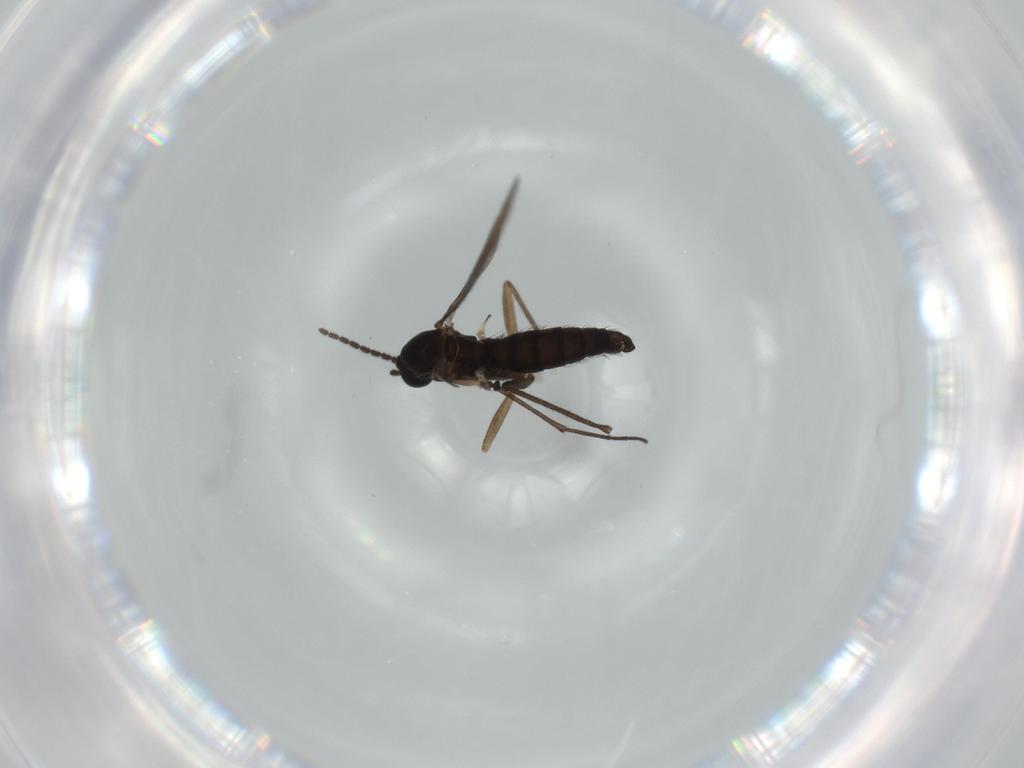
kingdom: Animalia
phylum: Arthropoda
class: Insecta
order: Diptera
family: Sciaridae
